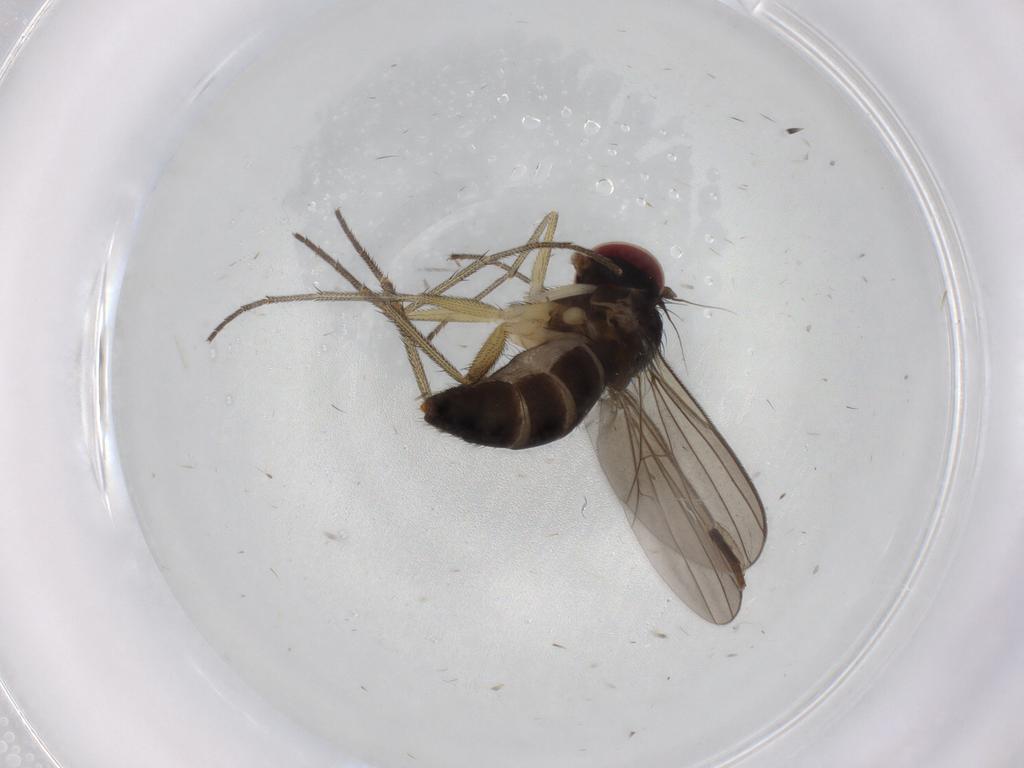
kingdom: Animalia
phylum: Arthropoda
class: Insecta
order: Diptera
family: Dolichopodidae
